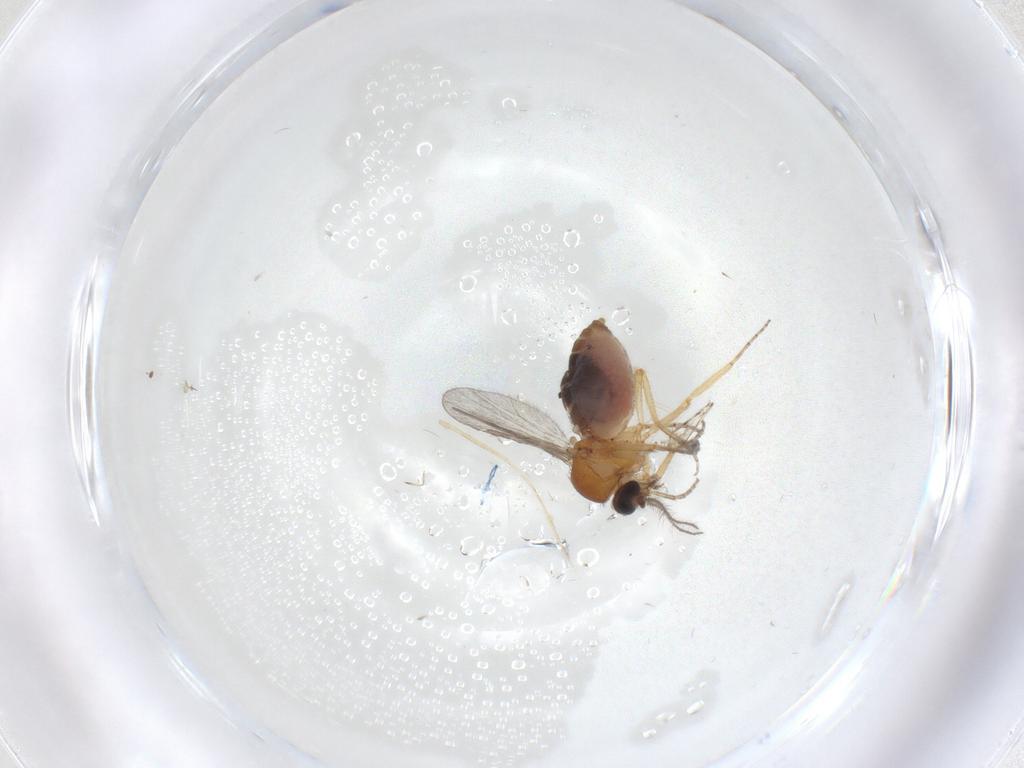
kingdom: Animalia
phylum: Arthropoda
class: Insecta
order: Diptera
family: Ceratopogonidae
